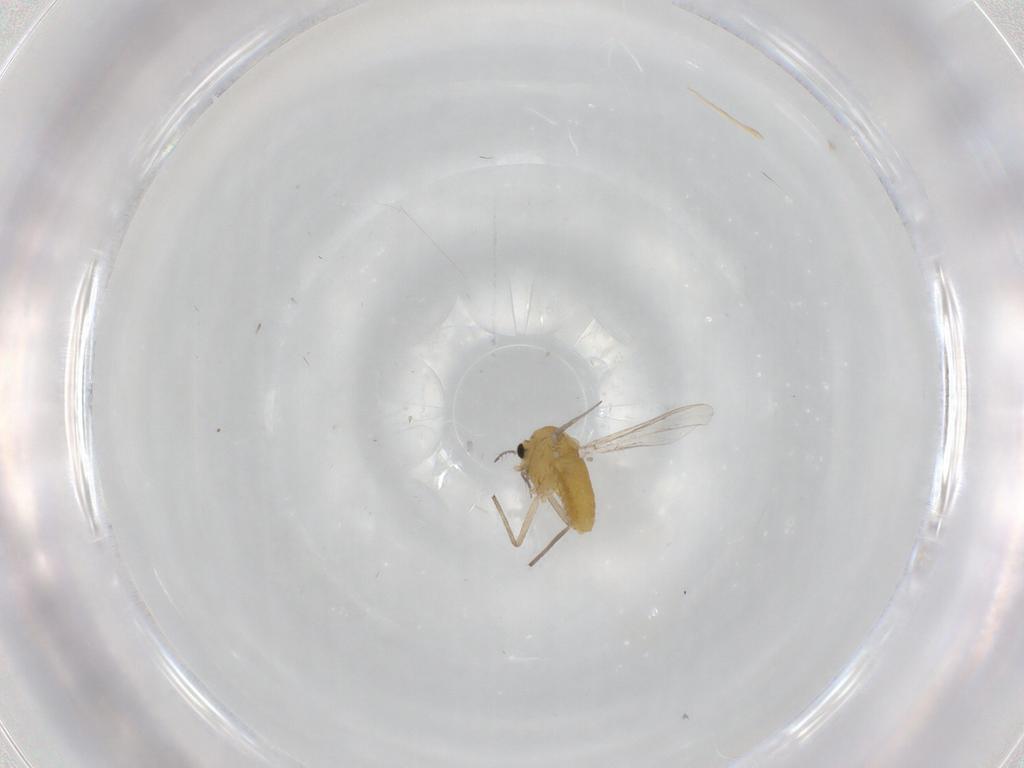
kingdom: Animalia
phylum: Arthropoda
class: Insecta
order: Diptera
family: Chironomidae
